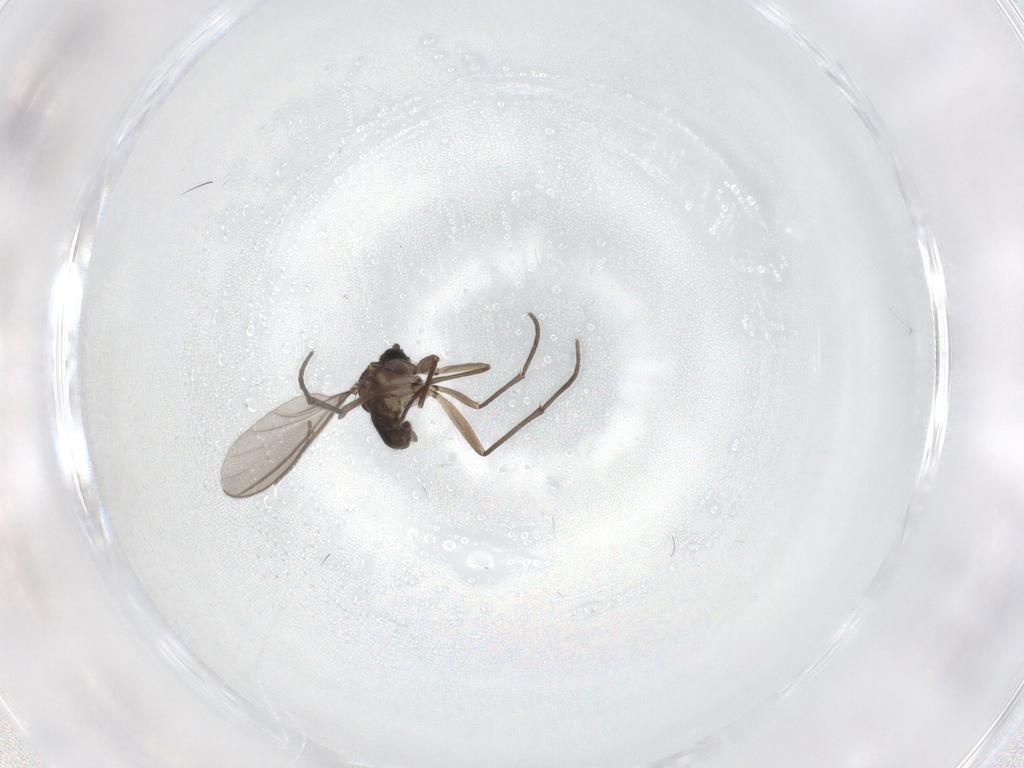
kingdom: Animalia
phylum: Arthropoda
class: Insecta
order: Diptera
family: Sciaridae
